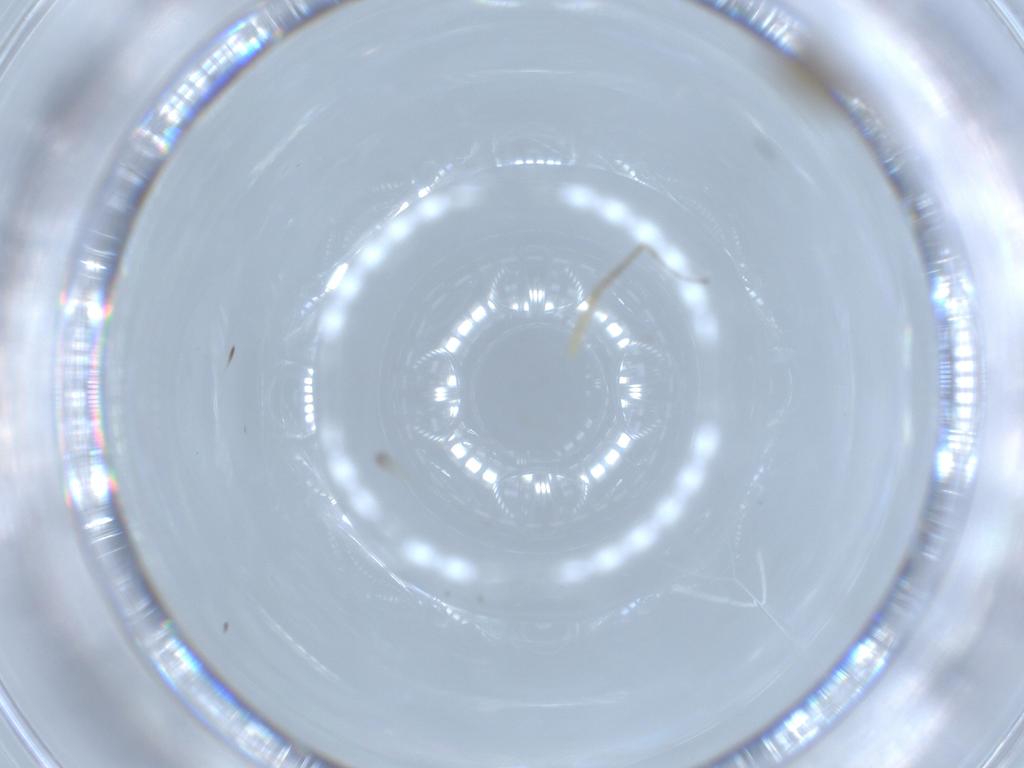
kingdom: Animalia
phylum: Arthropoda
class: Insecta
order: Diptera
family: Chironomidae
